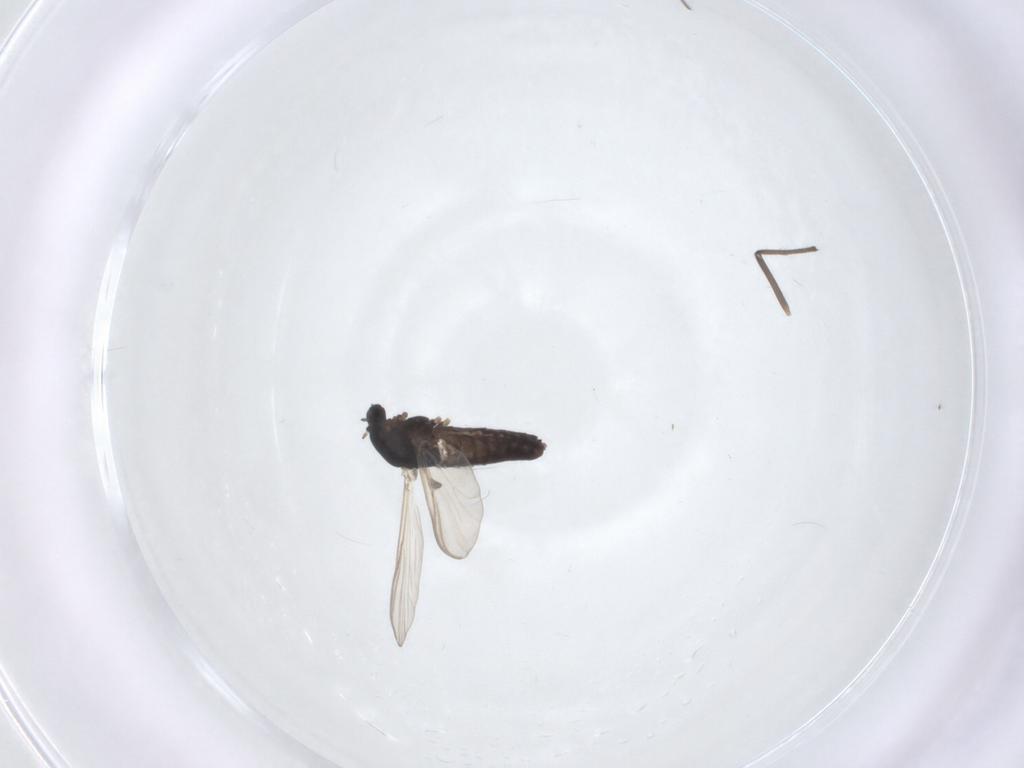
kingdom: Animalia
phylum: Arthropoda
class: Insecta
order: Diptera
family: Chironomidae
